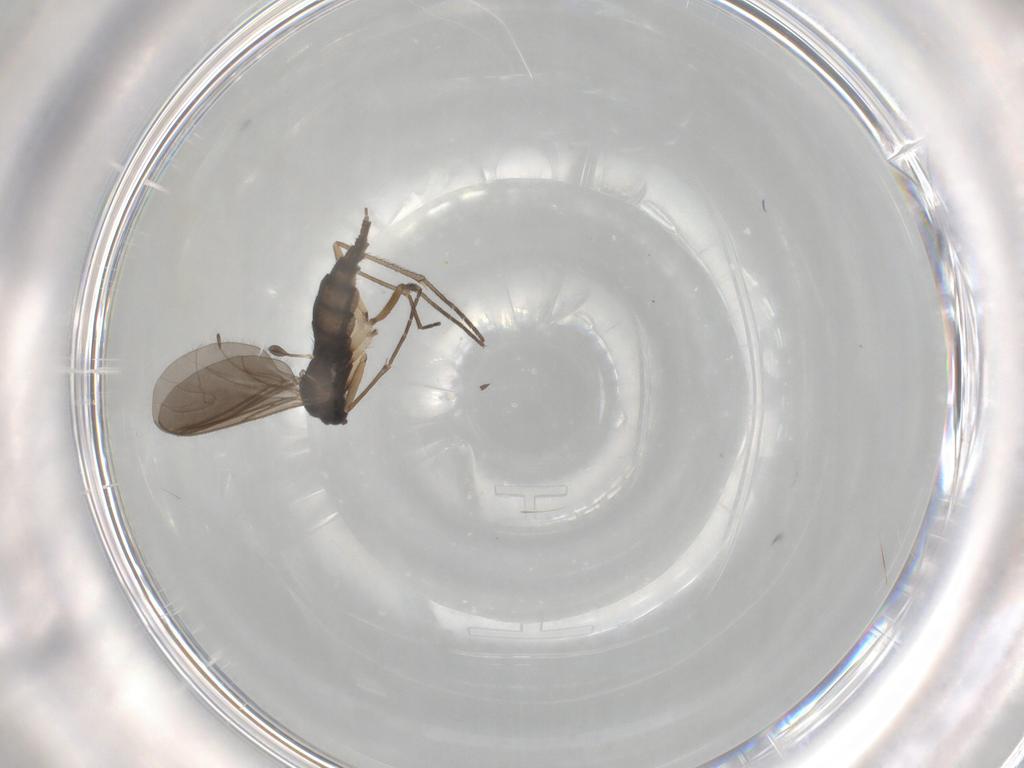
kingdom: Animalia
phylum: Arthropoda
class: Insecta
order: Diptera
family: Sciaridae
